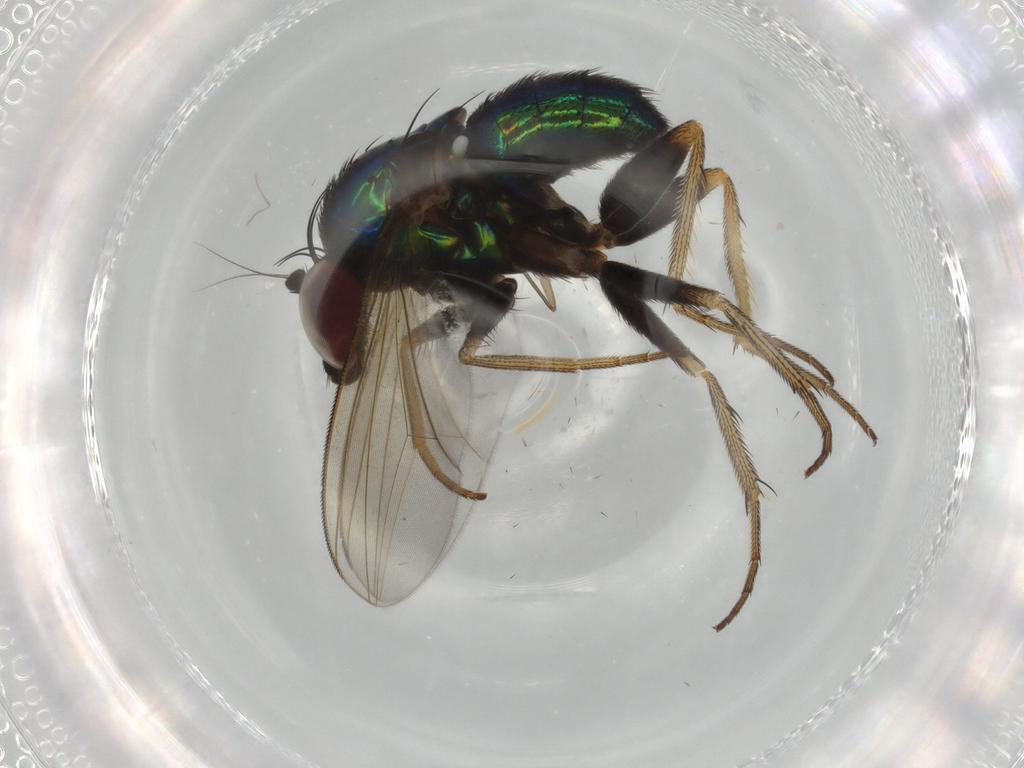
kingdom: Animalia
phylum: Arthropoda
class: Insecta
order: Diptera
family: Dolichopodidae
